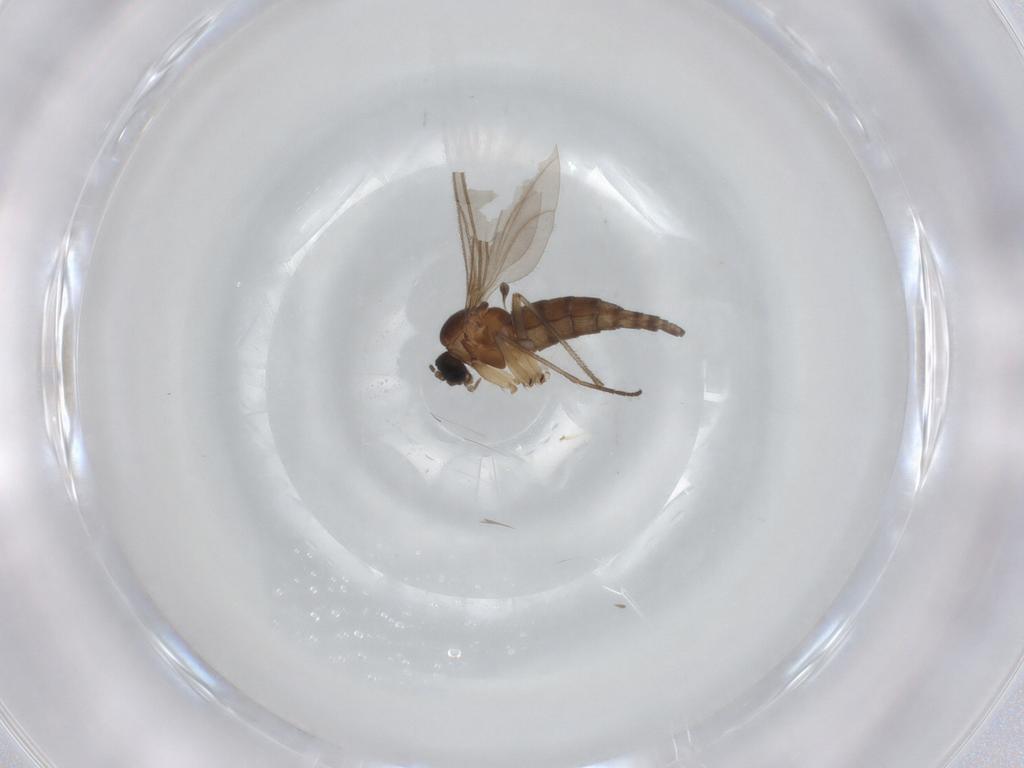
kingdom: Animalia
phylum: Arthropoda
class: Insecta
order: Diptera
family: Sciaridae
